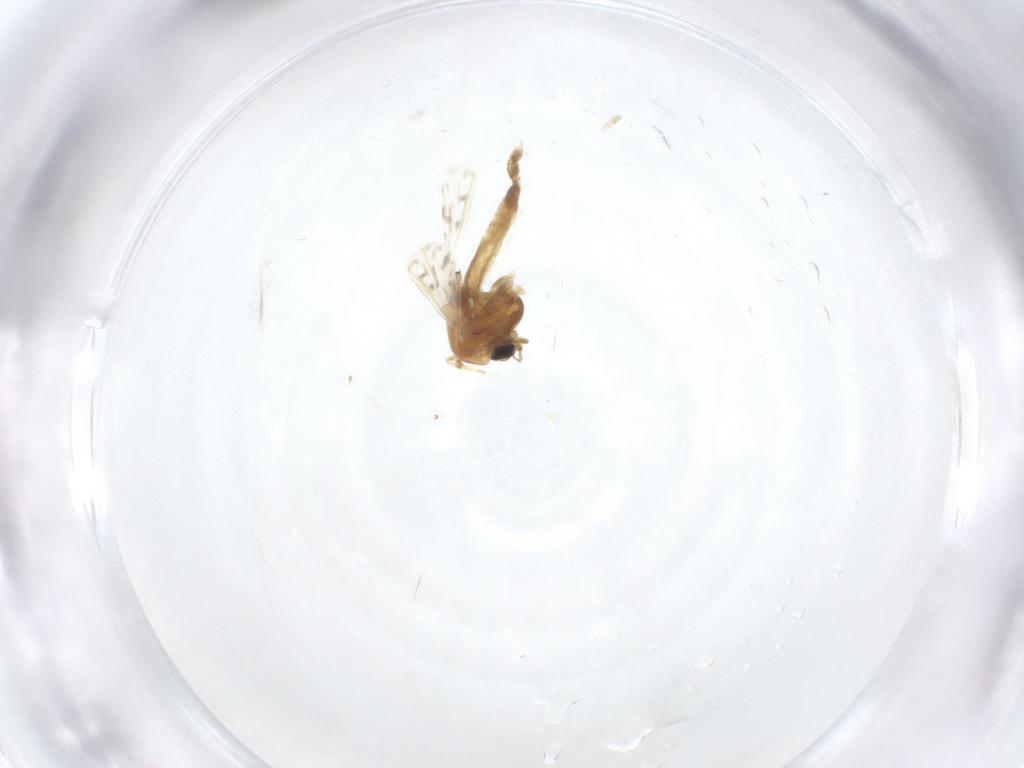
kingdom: Animalia
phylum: Arthropoda
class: Insecta
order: Diptera
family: Chironomidae
